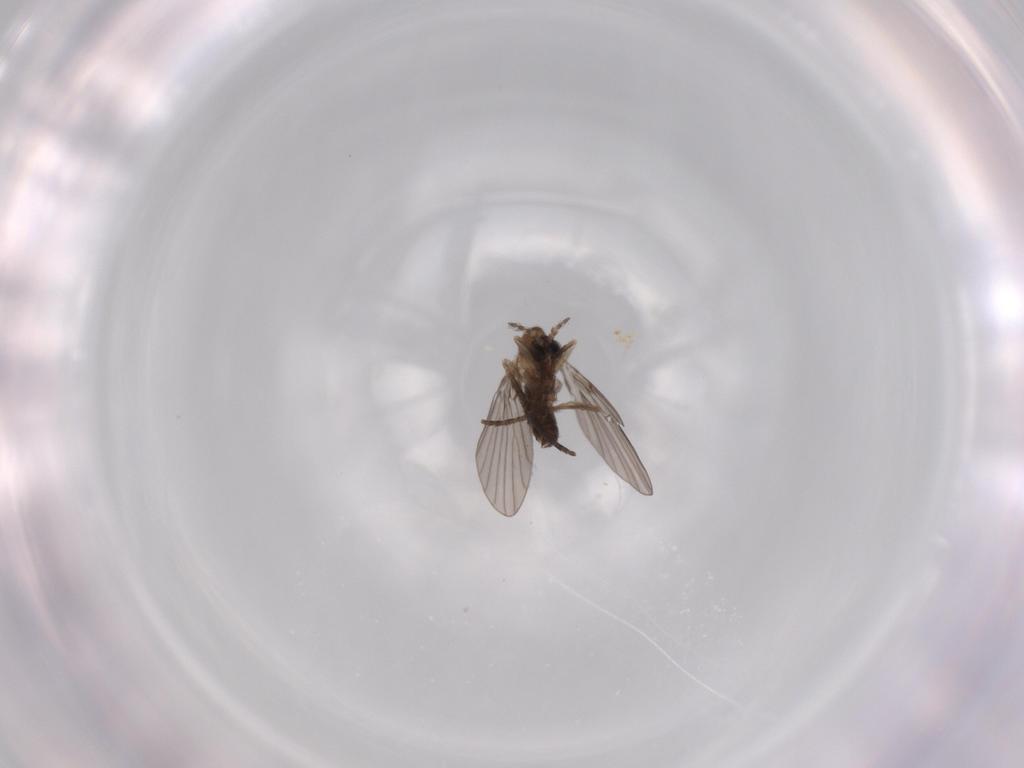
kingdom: Animalia
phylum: Arthropoda
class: Insecta
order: Diptera
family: Psychodidae
